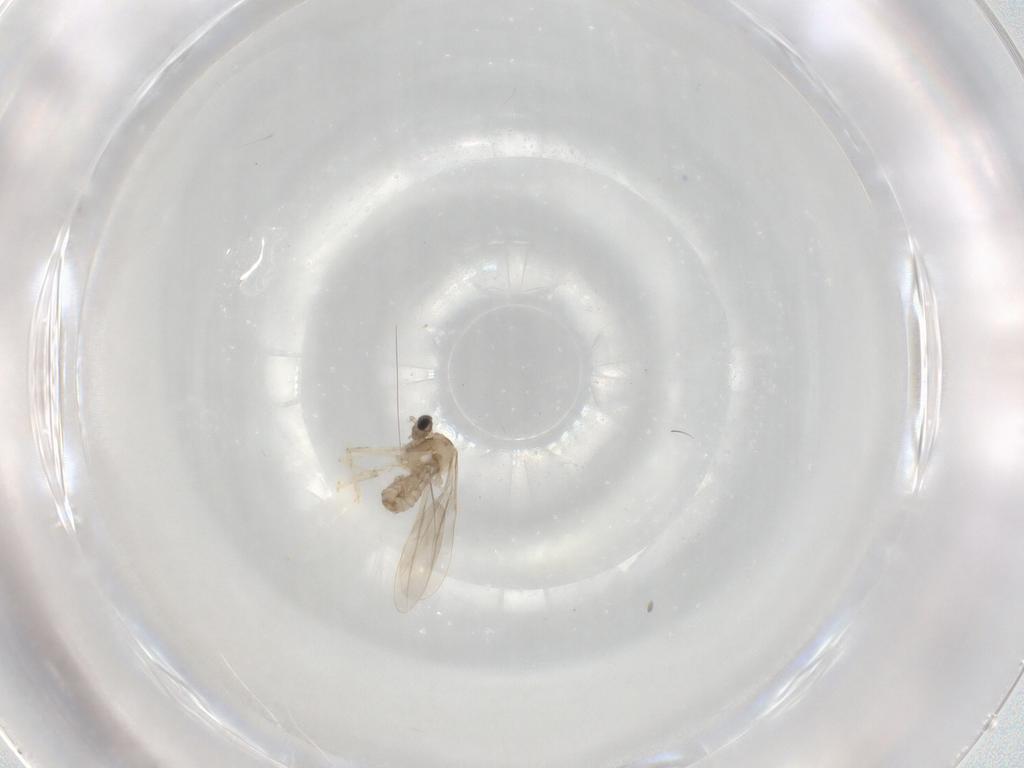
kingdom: Animalia
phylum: Arthropoda
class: Insecta
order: Diptera
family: Cecidomyiidae
